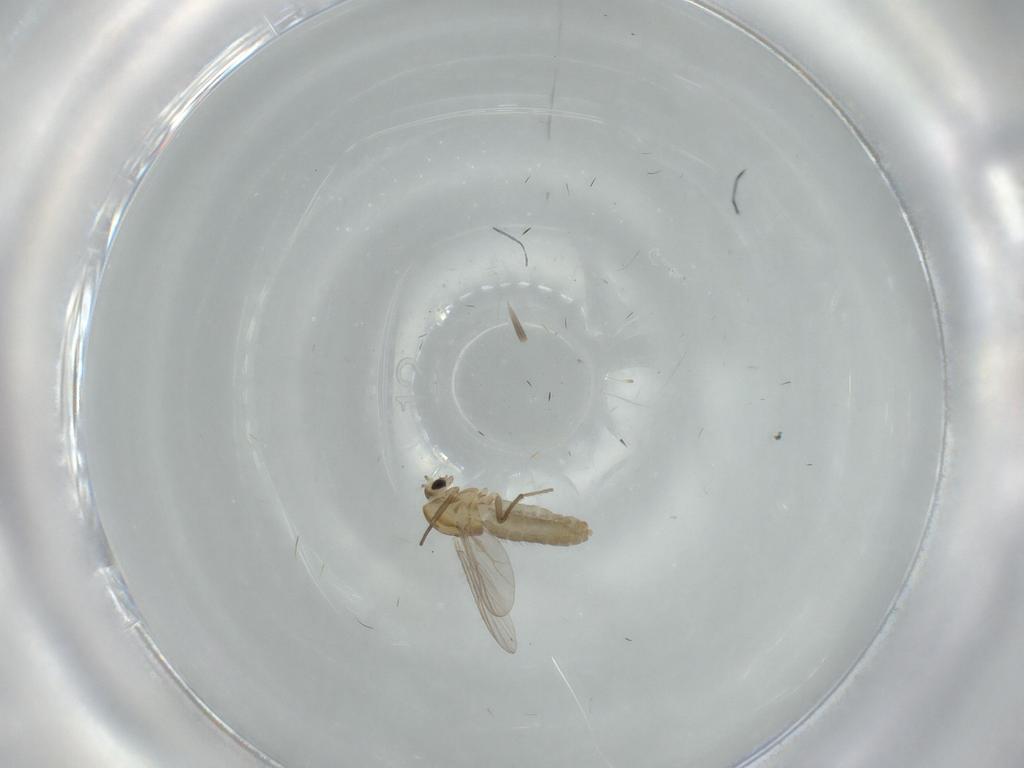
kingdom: Animalia
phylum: Arthropoda
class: Insecta
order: Diptera
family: Chironomidae
